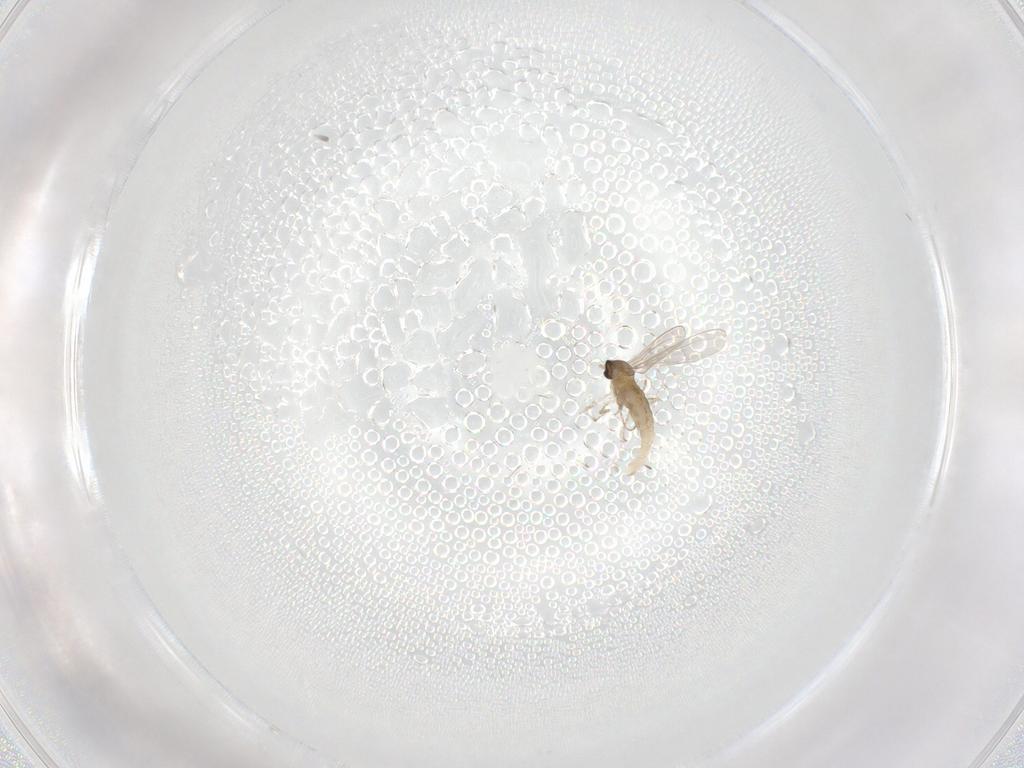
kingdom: Animalia
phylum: Arthropoda
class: Insecta
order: Diptera
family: Cecidomyiidae
